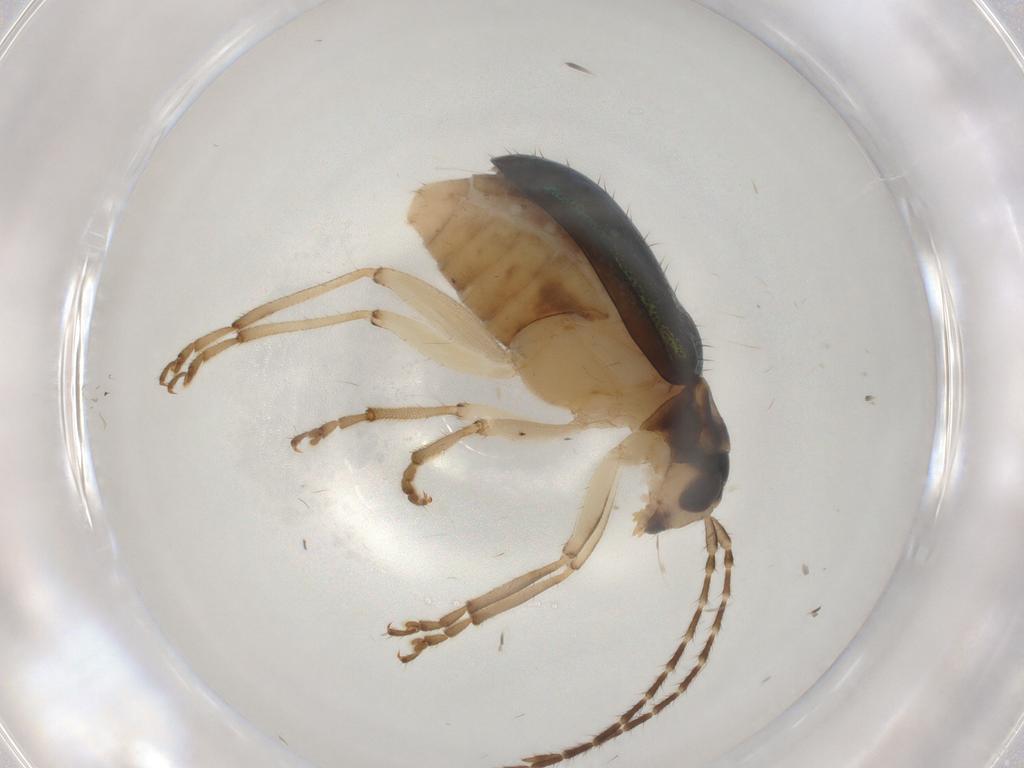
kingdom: Animalia
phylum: Arthropoda
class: Insecta
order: Coleoptera
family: Chrysomelidae
